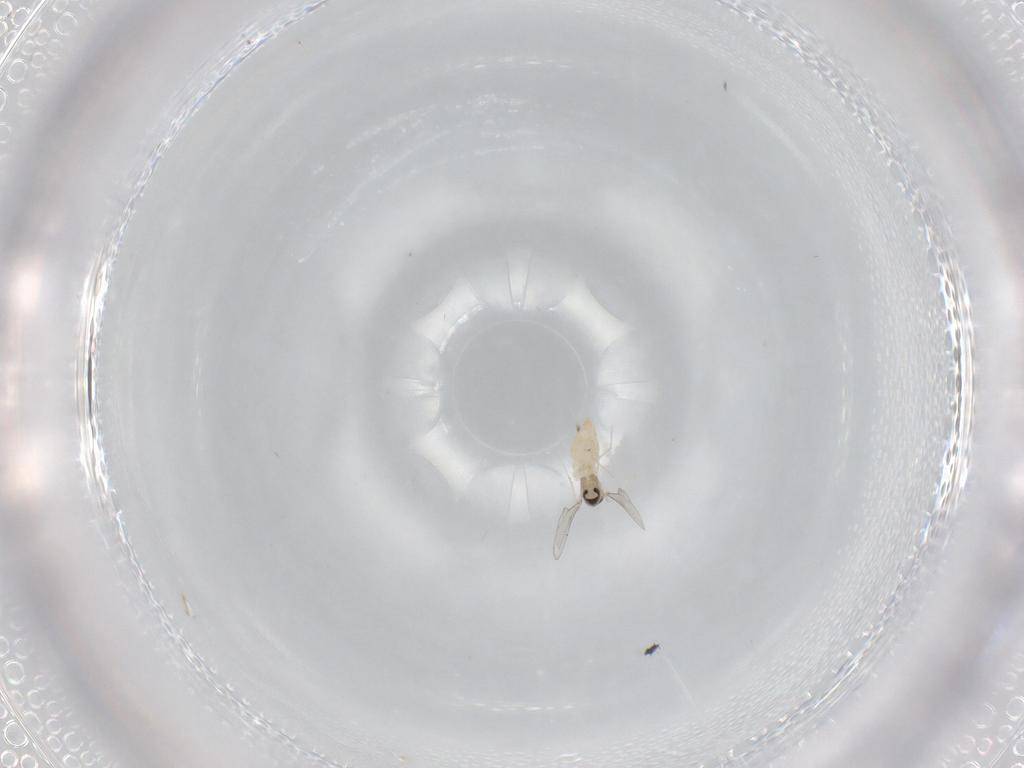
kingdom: Animalia
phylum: Arthropoda
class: Insecta
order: Diptera
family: Cecidomyiidae
